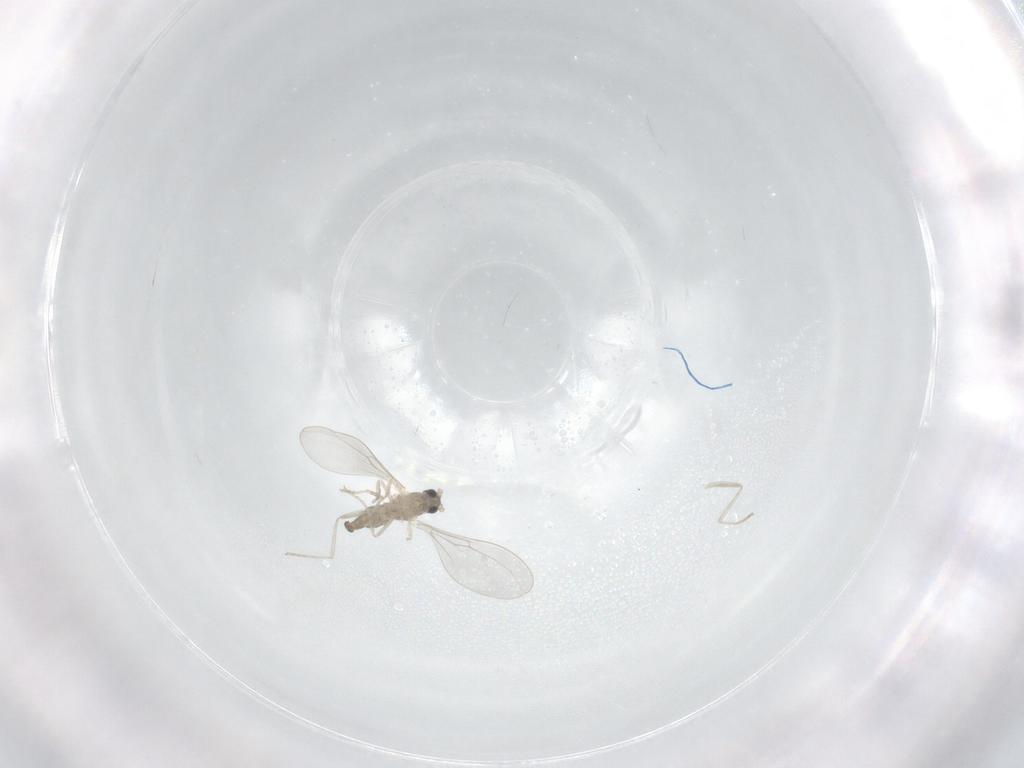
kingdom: Animalia
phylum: Arthropoda
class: Insecta
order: Diptera
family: Cecidomyiidae
